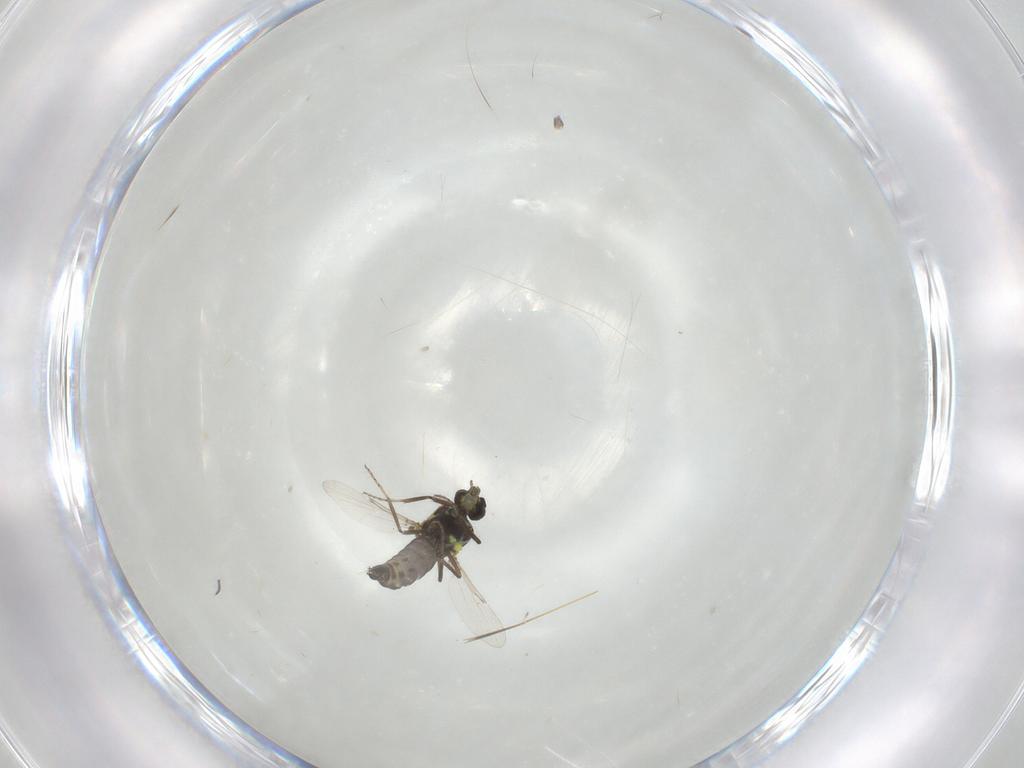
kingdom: Animalia
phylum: Arthropoda
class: Insecta
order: Diptera
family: Ceratopogonidae
